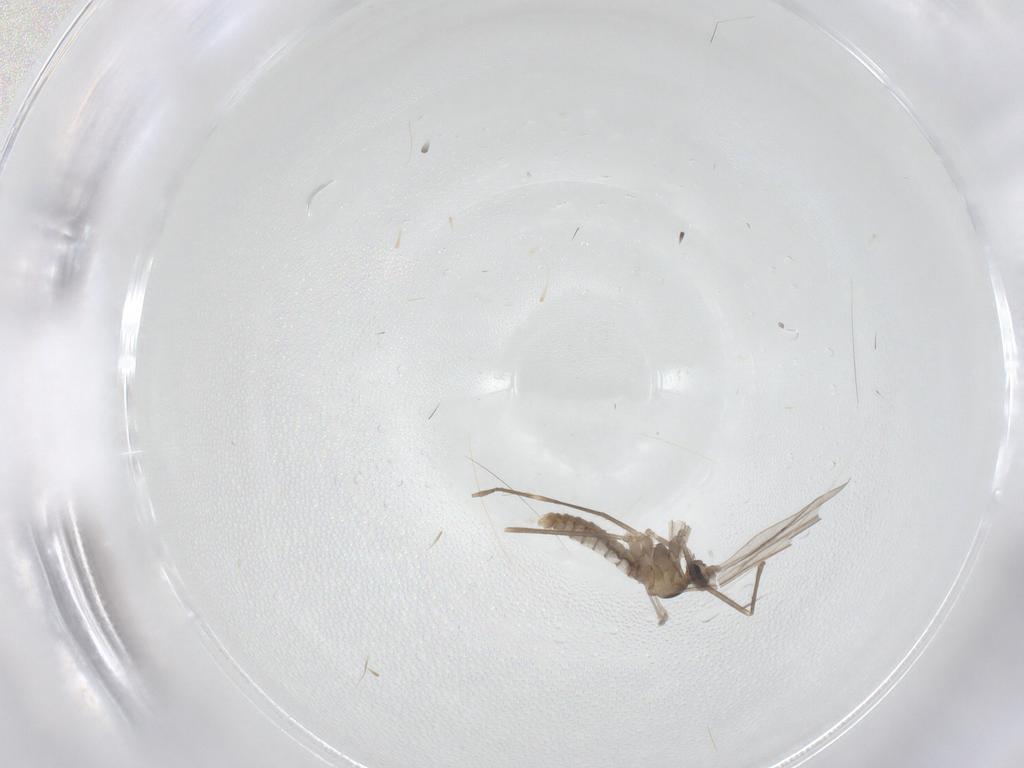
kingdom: Animalia
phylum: Arthropoda
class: Insecta
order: Diptera
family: Cecidomyiidae
